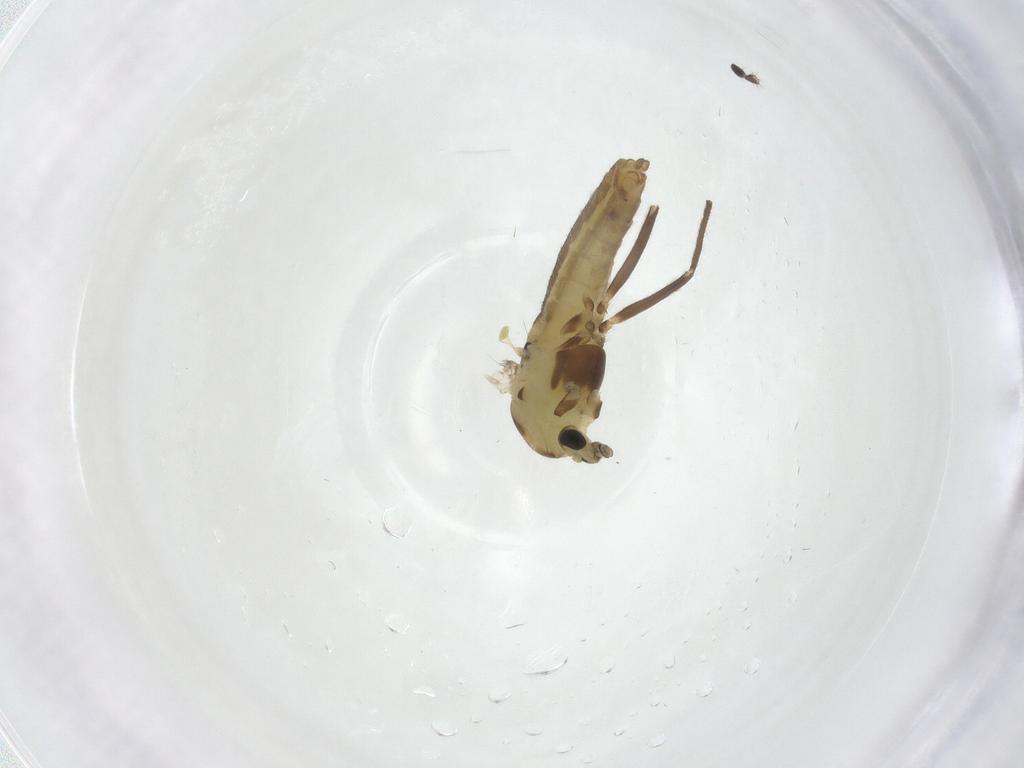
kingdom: Animalia
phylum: Arthropoda
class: Insecta
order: Diptera
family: Chironomidae
